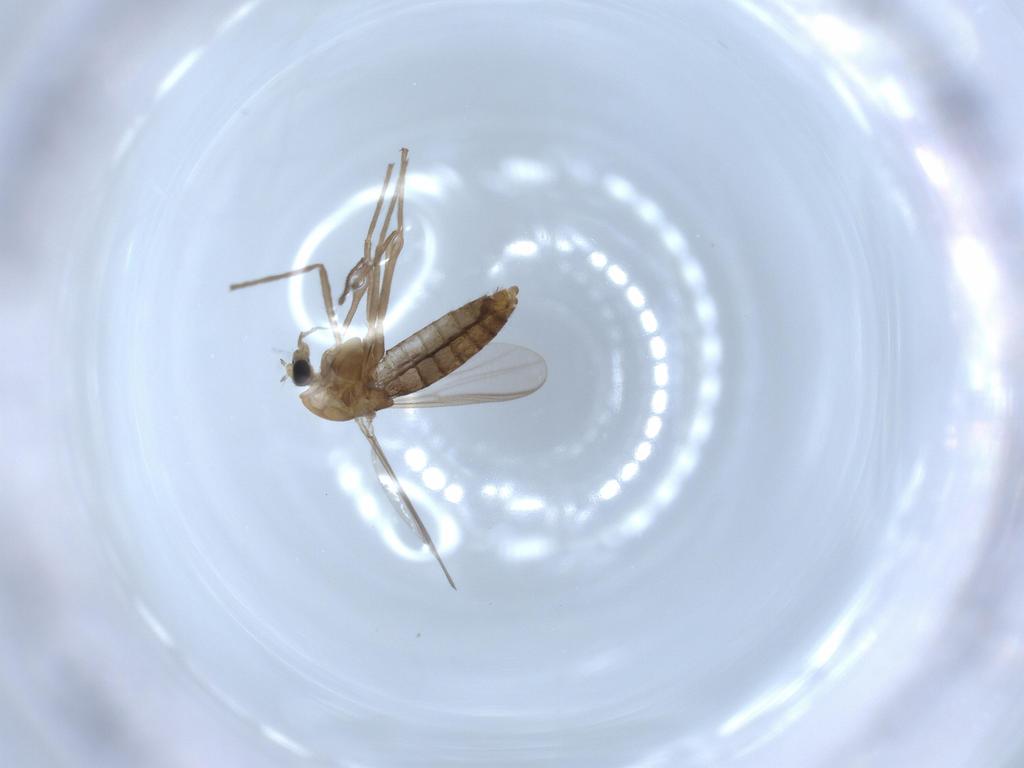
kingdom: Animalia
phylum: Arthropoda
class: Insecta
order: Diptera
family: Chironomidae
